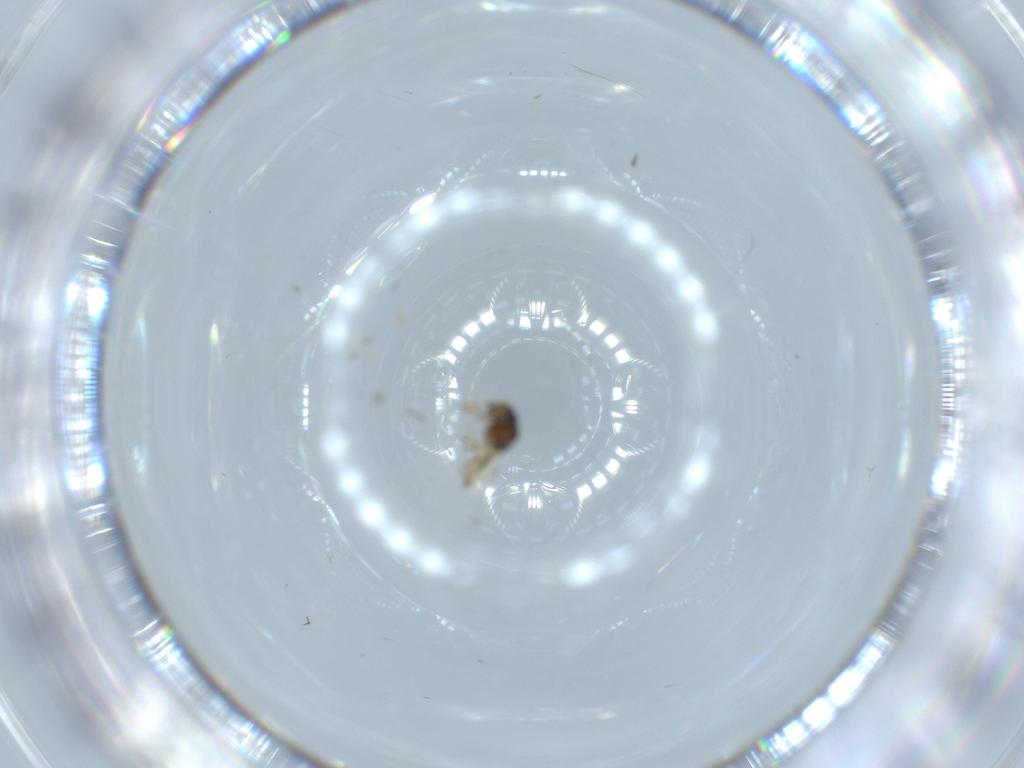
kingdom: Animalia
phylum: Arthropoda
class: Insecta
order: Hymenoptera
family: Scelionidae
